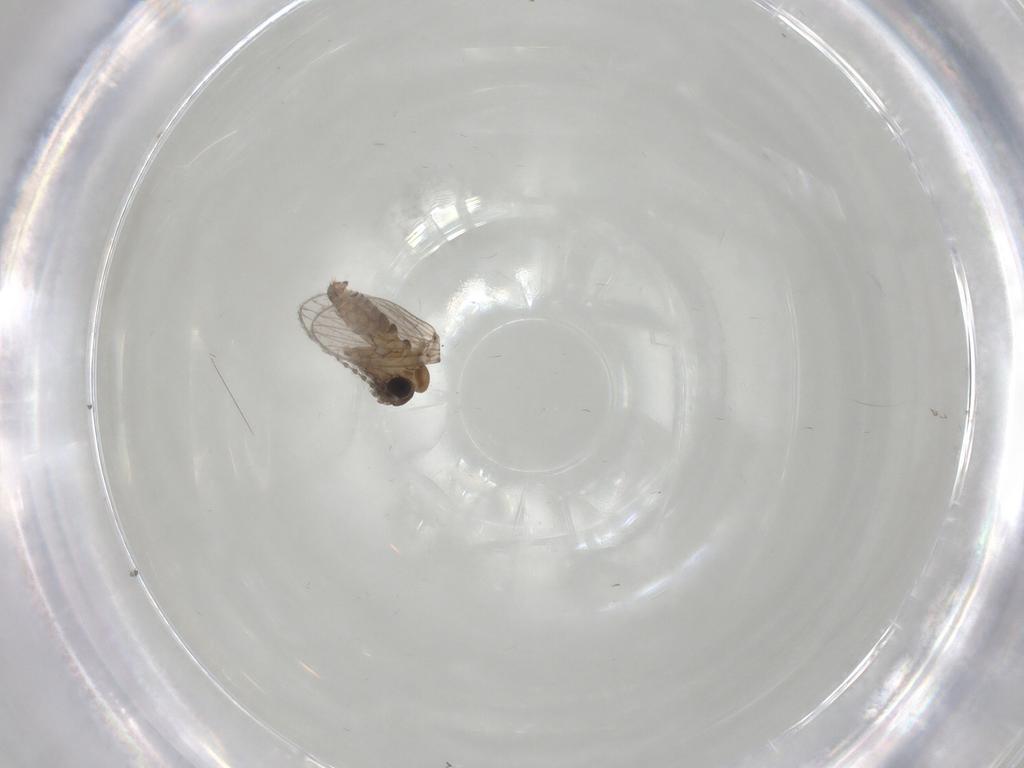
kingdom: Animalia
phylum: Arthropoda
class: Insecta
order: Diptera
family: Psychodidae
